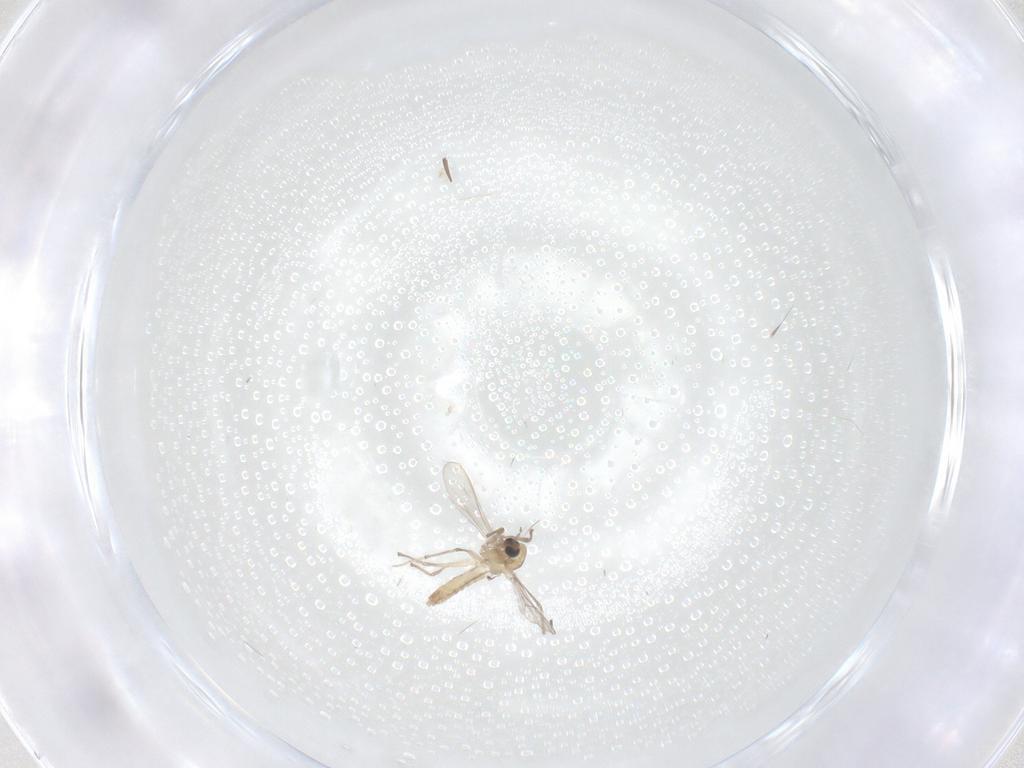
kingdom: Animalia
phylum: Arthropoda
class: Insecta
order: Diptera
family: Chironomidae
